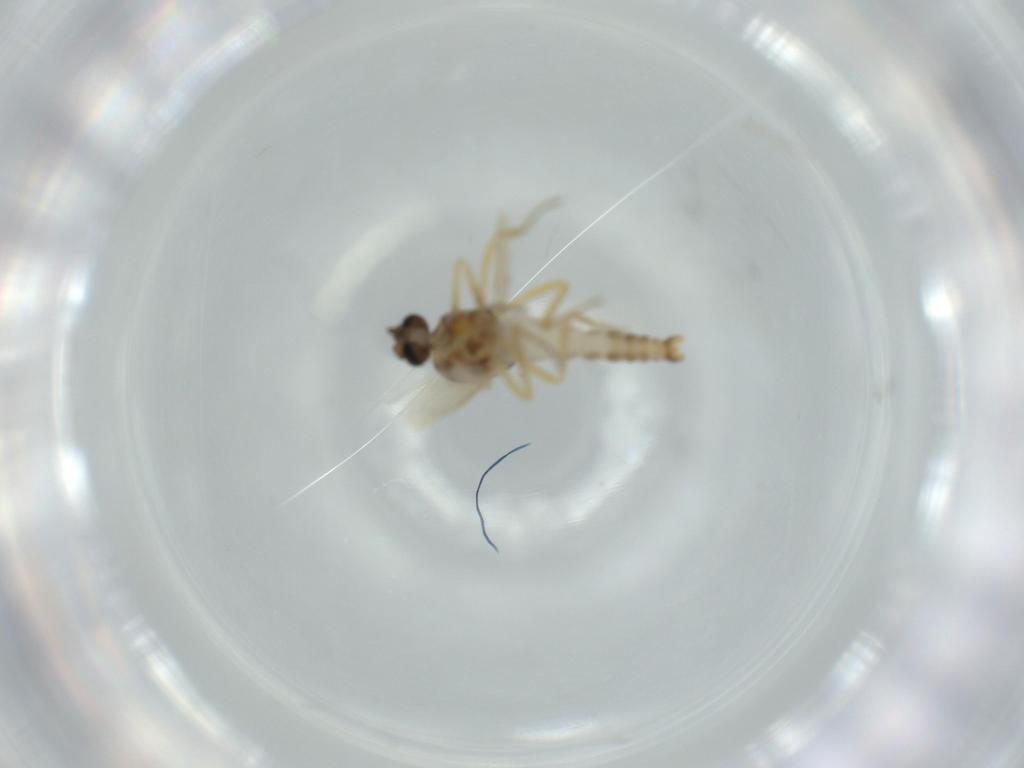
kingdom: Animalia
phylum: Arthropoda
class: Insecta
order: Diptera
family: Ceratopogonidae
